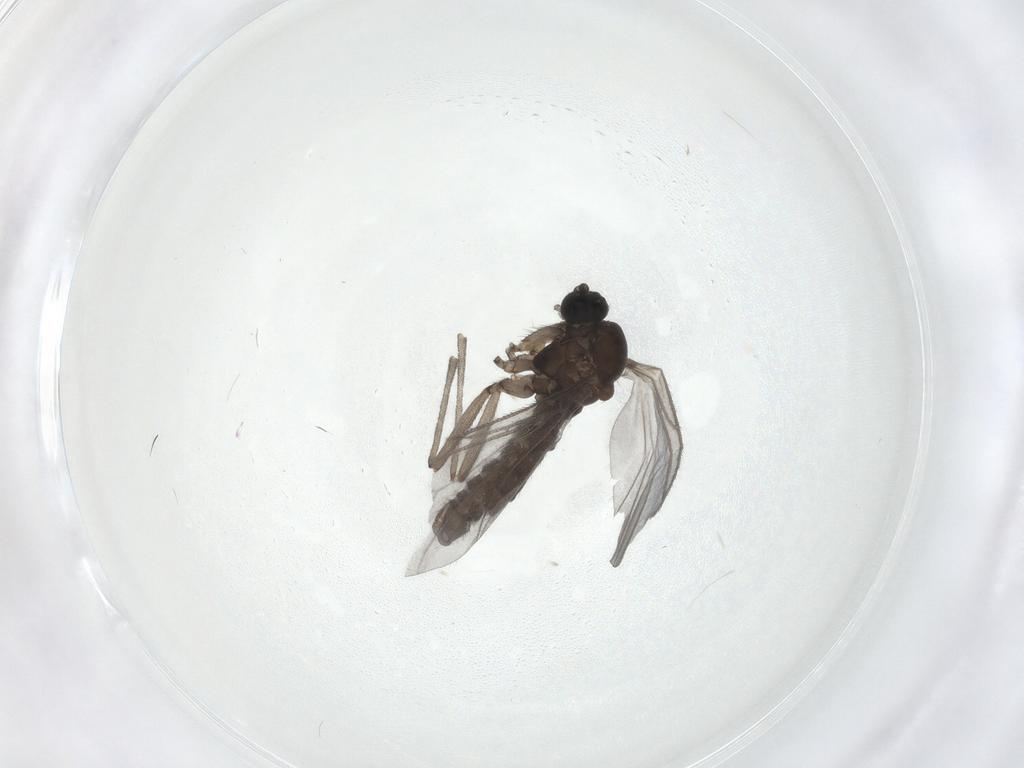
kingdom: Animalia
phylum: Arthropoda
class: Insecta
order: Diptera
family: Sciaridae
